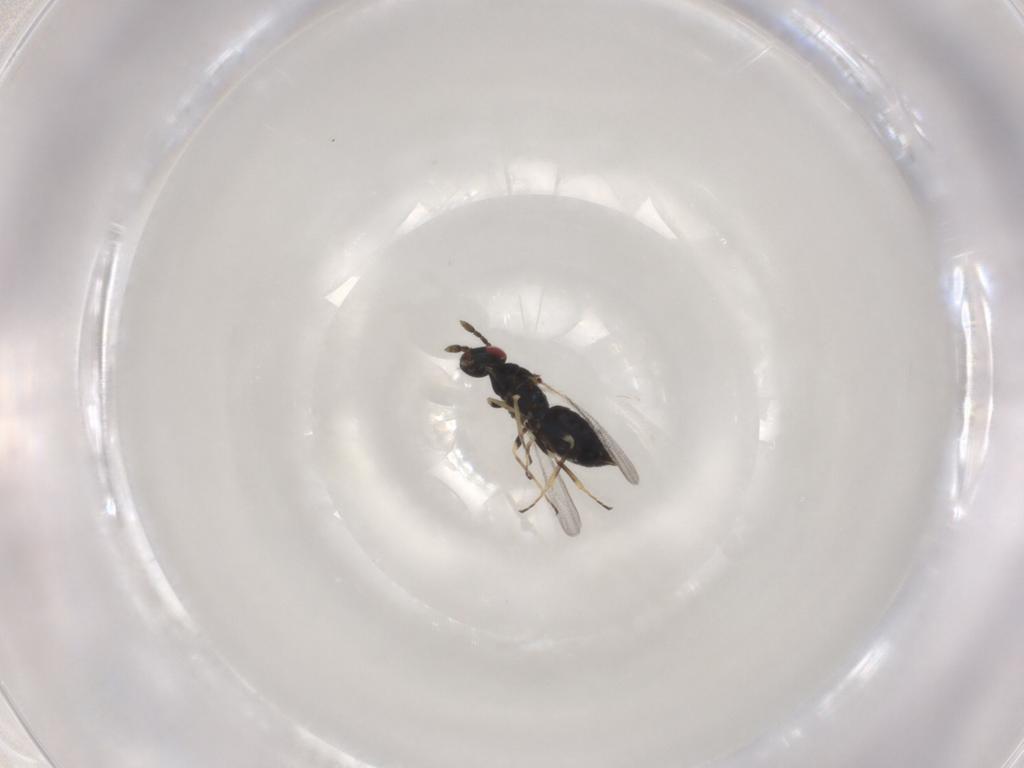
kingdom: Animalia
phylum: Arthropoda
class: Insecta
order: Hymenoptera
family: Eulophidae
